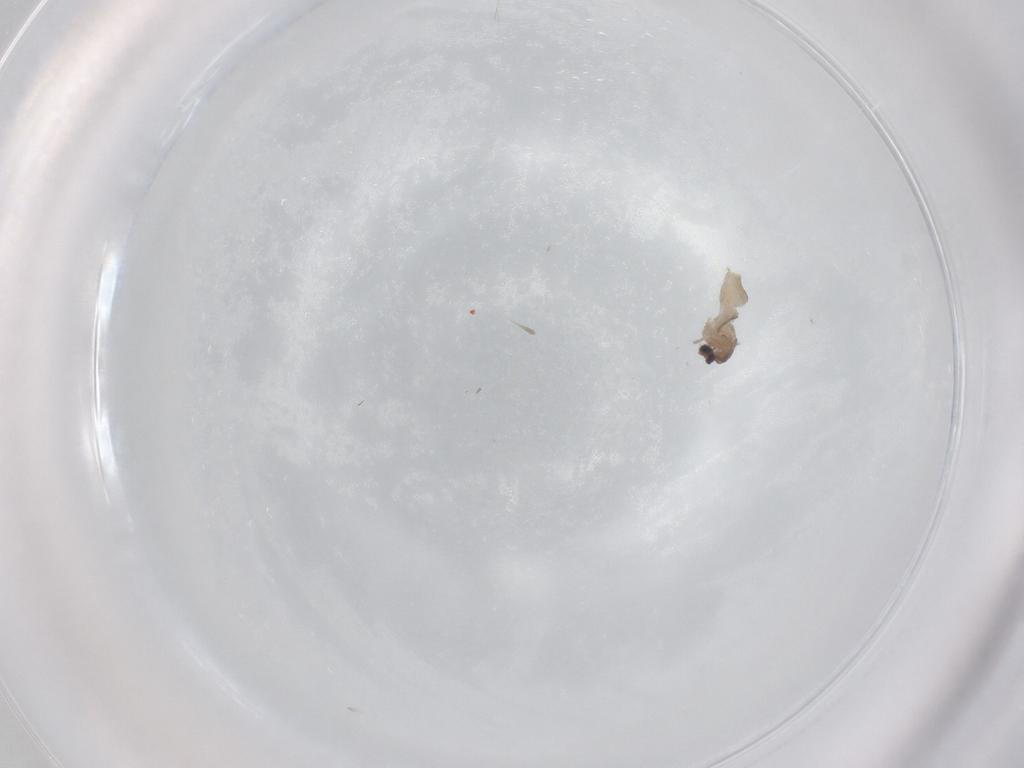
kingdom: Animalia
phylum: Arthropoda
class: Insecta
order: Diptera
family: Cecidomyiidae
